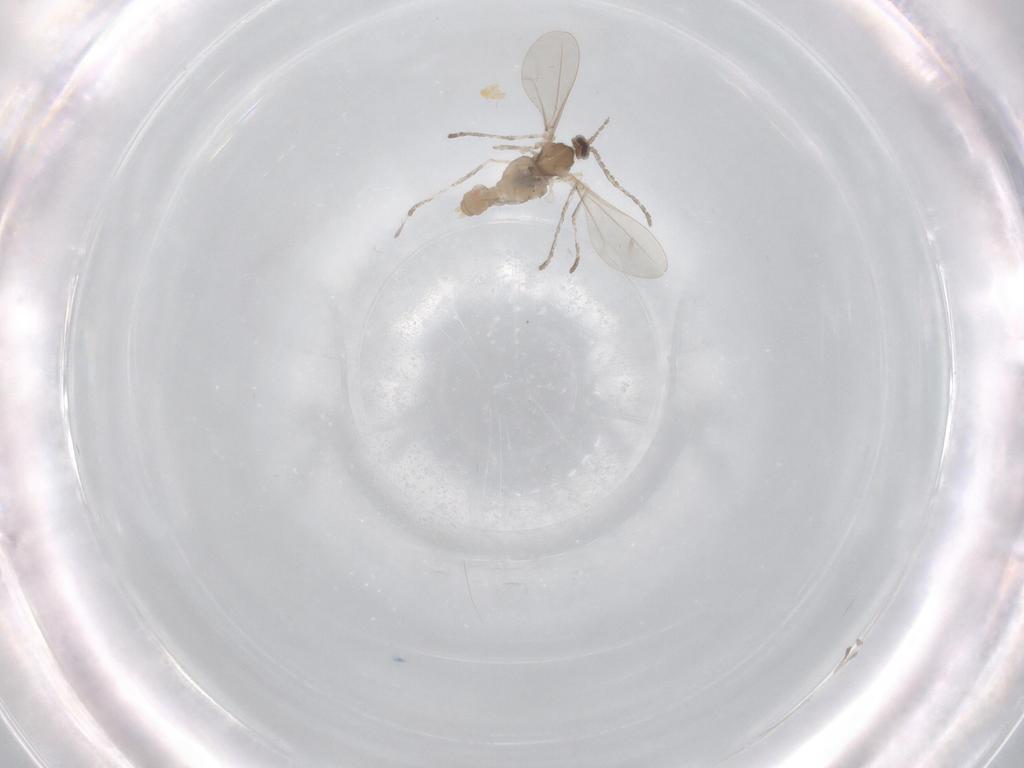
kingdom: Animalia
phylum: Arthropoda
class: Insecta
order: Diptera
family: Cecidomyiidae
